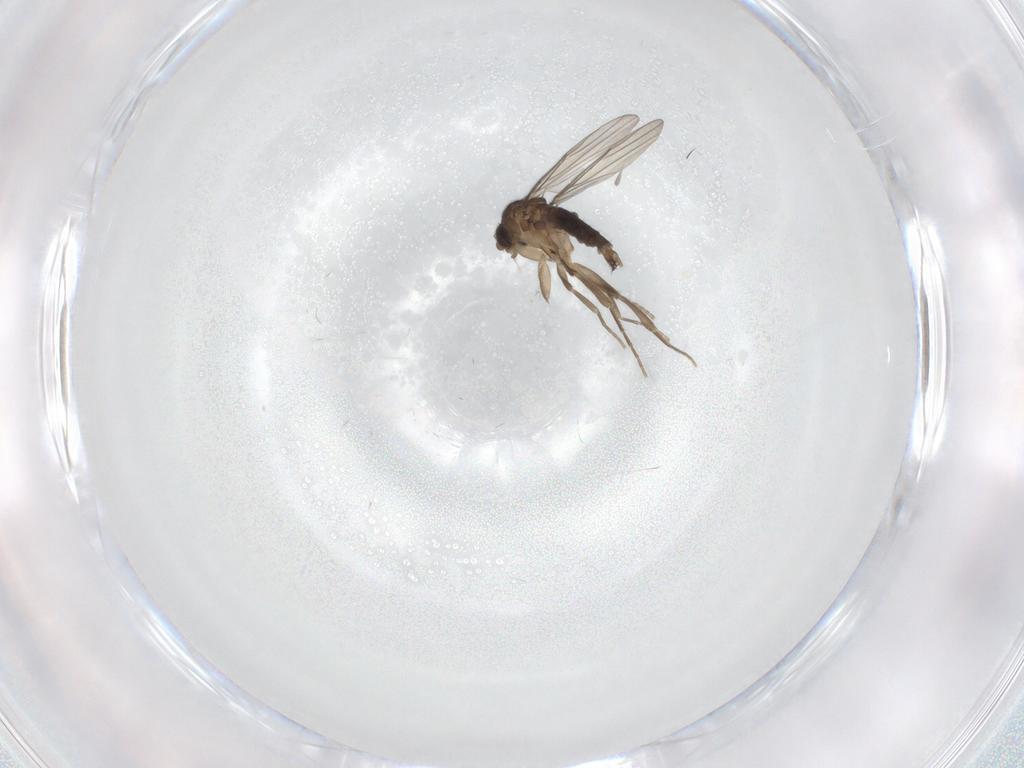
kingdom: Animalia
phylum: Arthropoda
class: Insecta
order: Diptera
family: Phoridae
